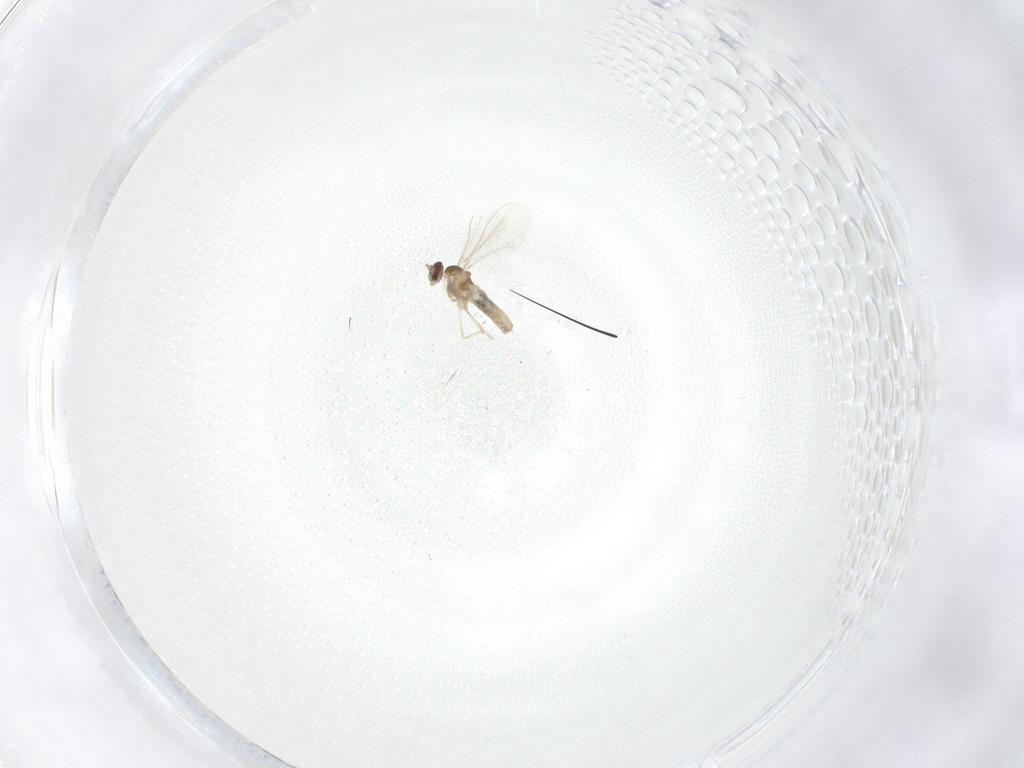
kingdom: Animalia
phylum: Arthropoda
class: Insecta
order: Diptera
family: Cecidomyiidae
